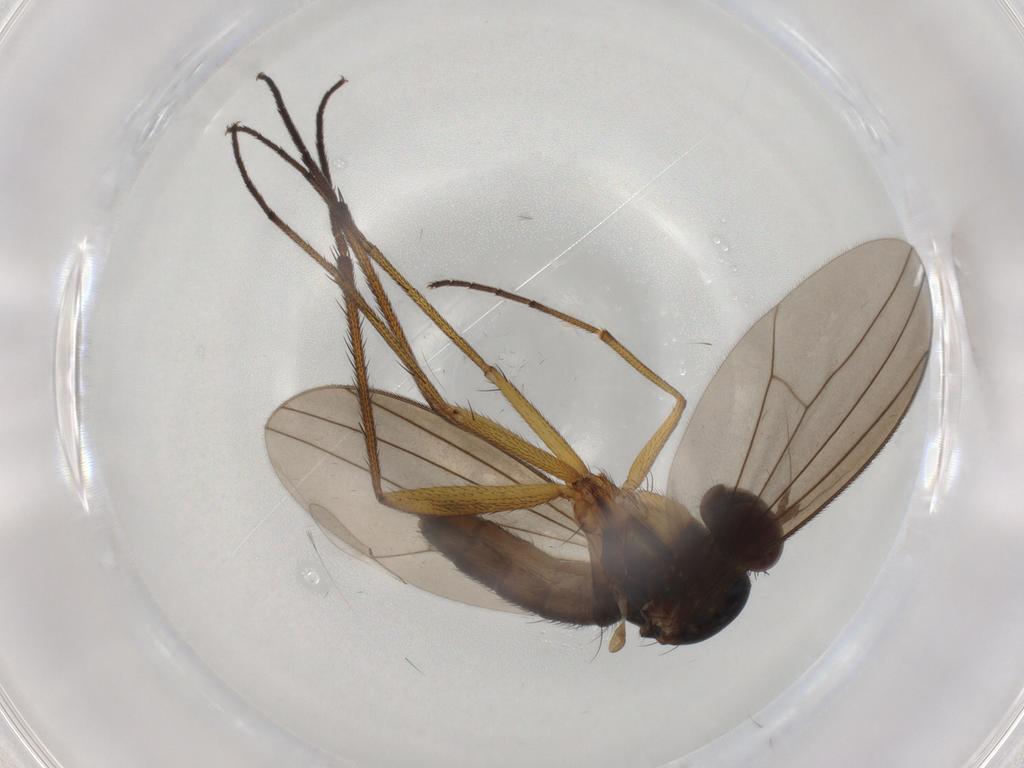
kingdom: Animalia
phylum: Arthropoda
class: Insecta
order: Diptera
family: Dolichopodidae
